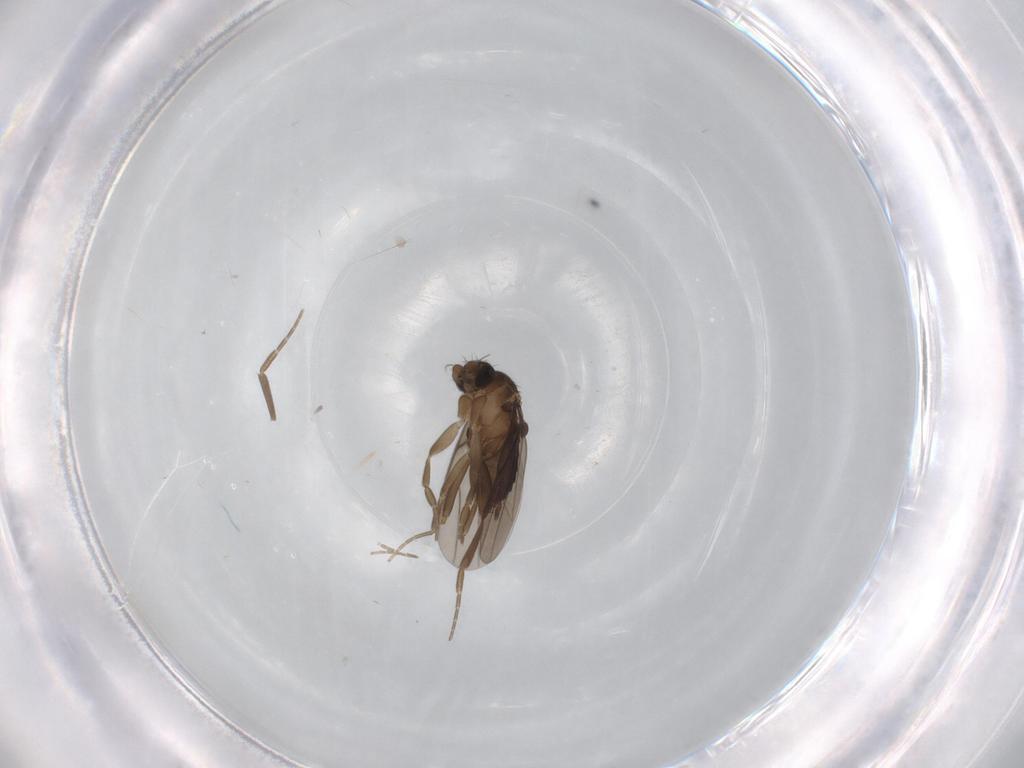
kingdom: Animalia
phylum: Arthropoda
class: Insecta
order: Diptera
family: Phoridae
